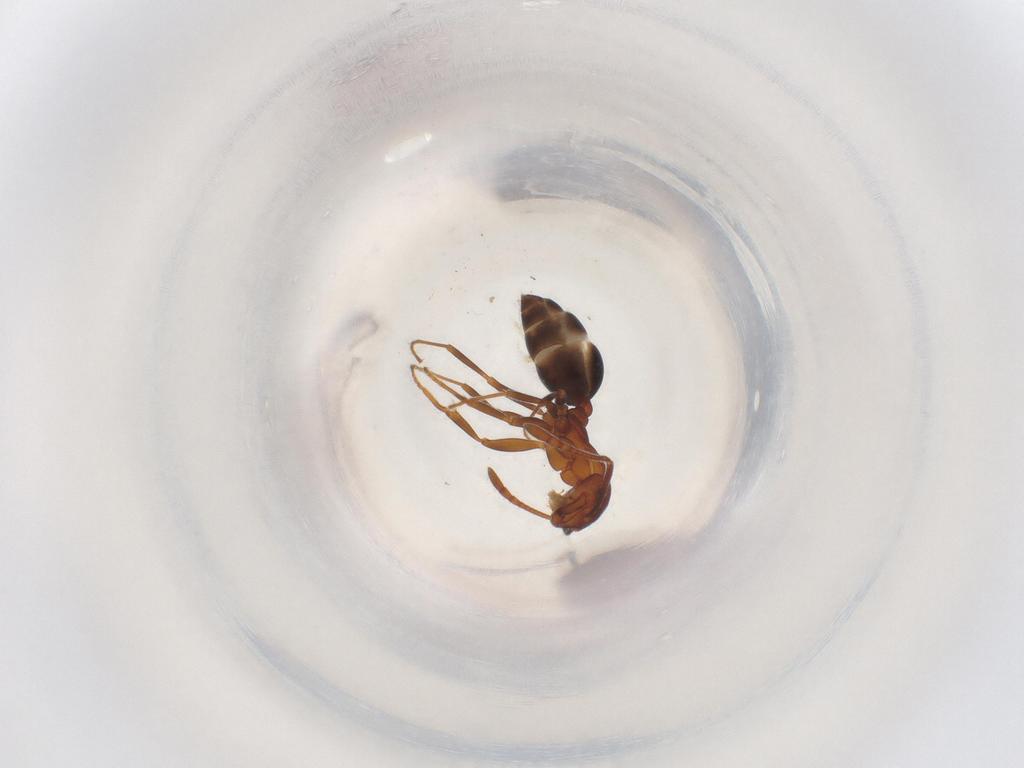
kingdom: Animalia
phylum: Arthropoda
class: Insecta
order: Hymenoptera
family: Formicidae
